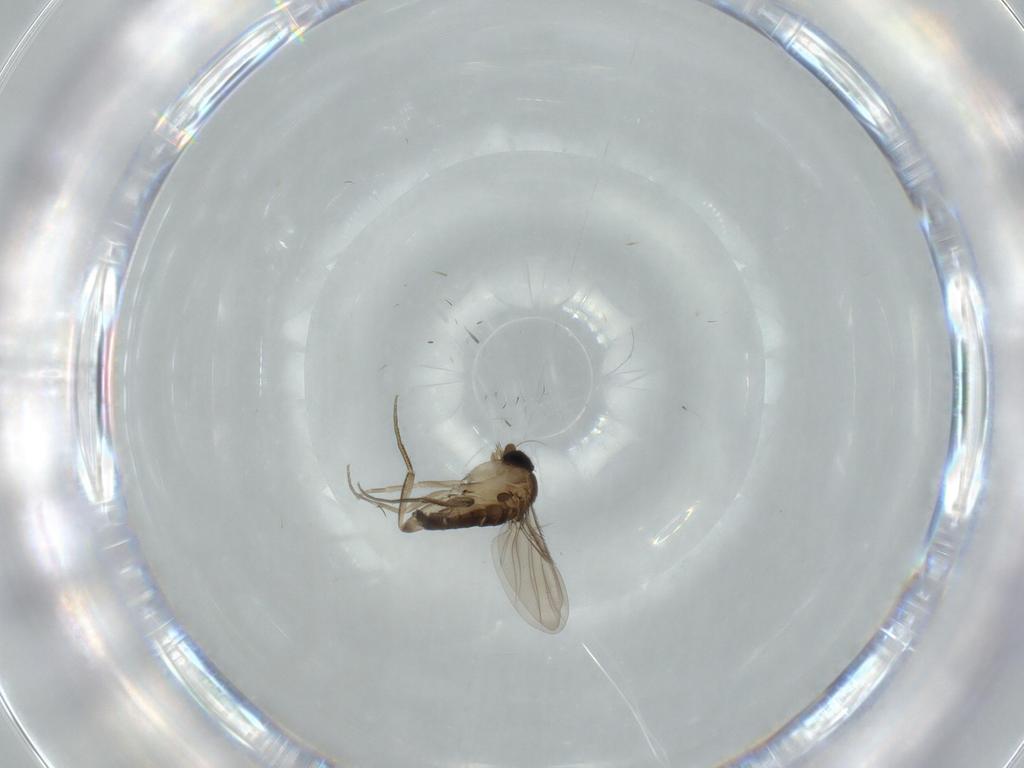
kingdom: Animalia
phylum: Arthropoda
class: Insecta
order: Diptera
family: Phoridae
